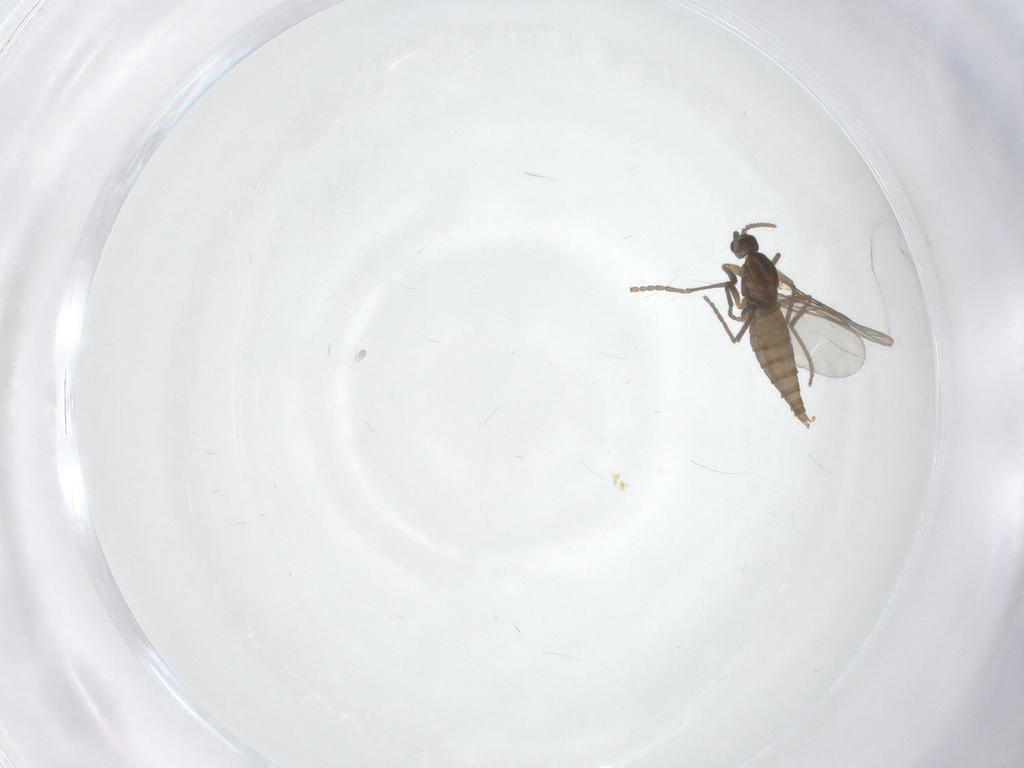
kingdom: Animalia
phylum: Arthropoda
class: Insecta
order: Diptera
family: Cecidomyiidae
